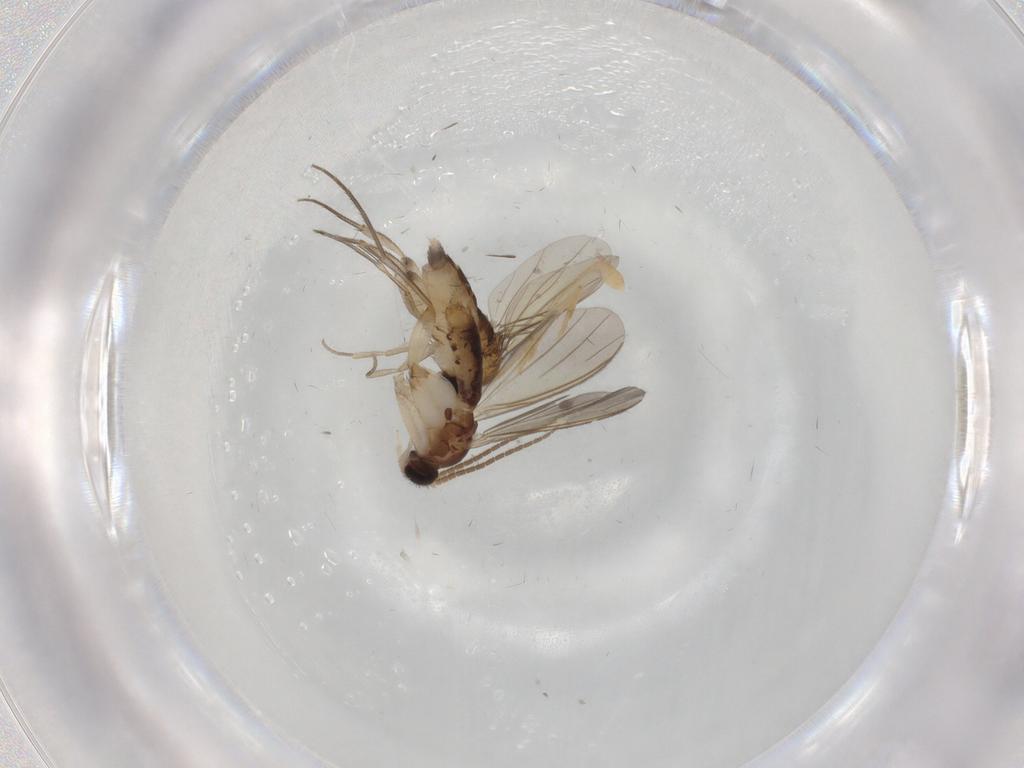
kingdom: Animalia
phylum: Arthropoda
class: Insecta
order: Diptera
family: Phoridae
